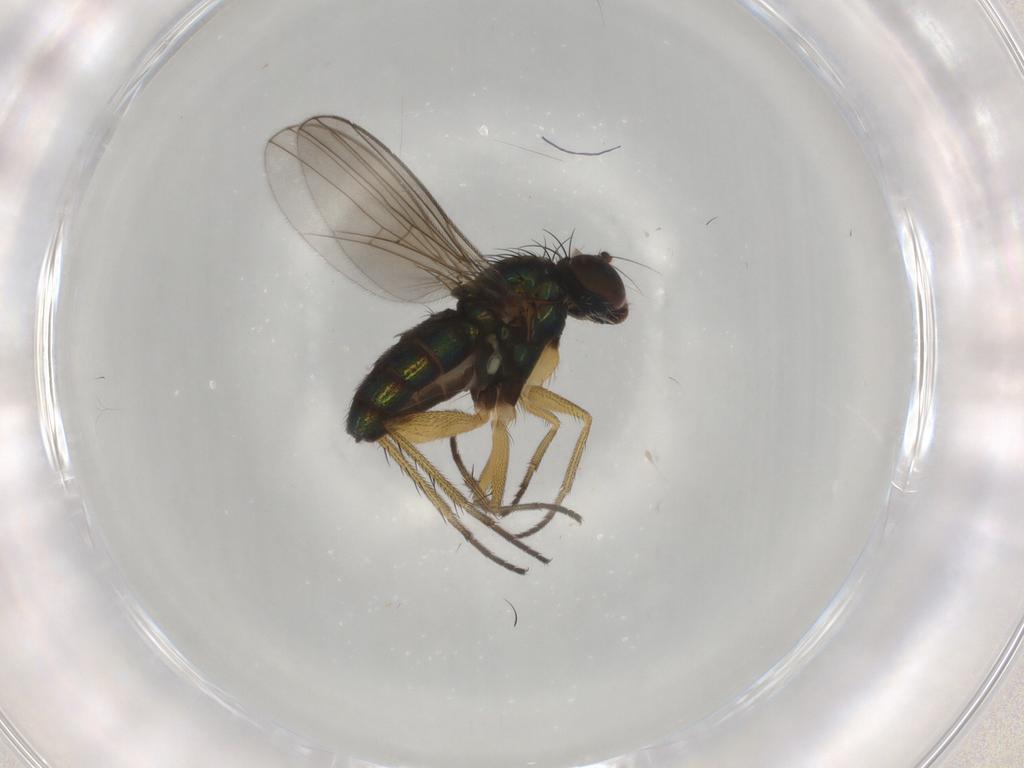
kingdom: Animalia
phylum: Arthropoda
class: Insecta
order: Diptera
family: Dolichopodidae
